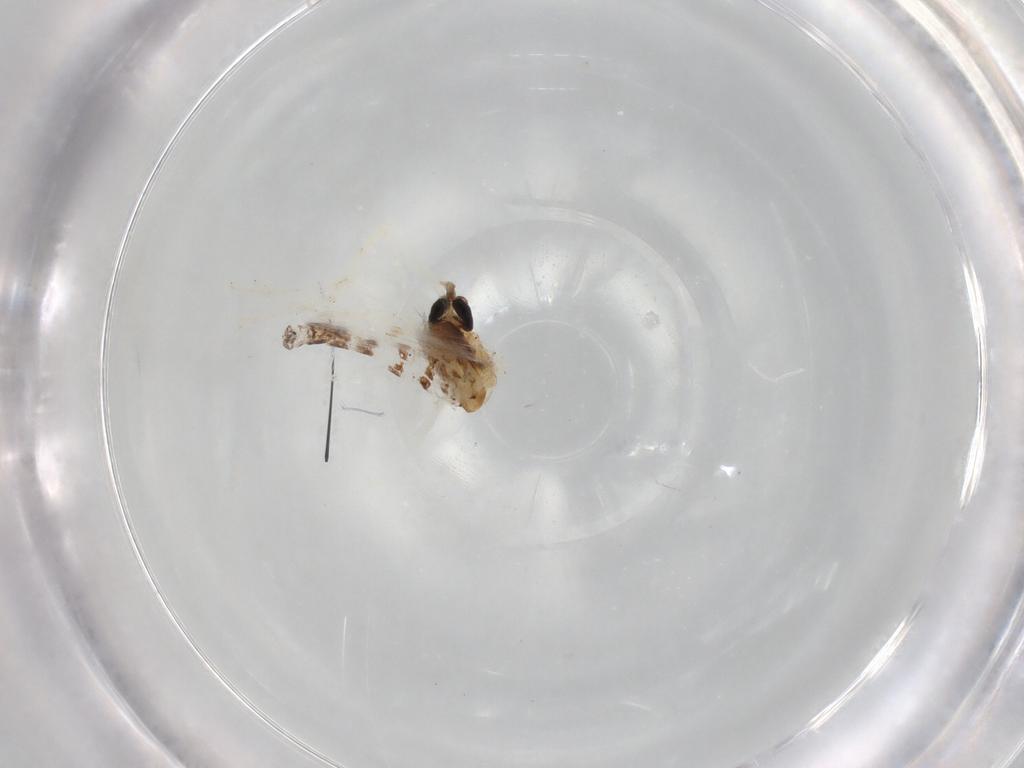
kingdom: Animalia
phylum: Arthropoda
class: Insecta
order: Diptera
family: Chironomidae
